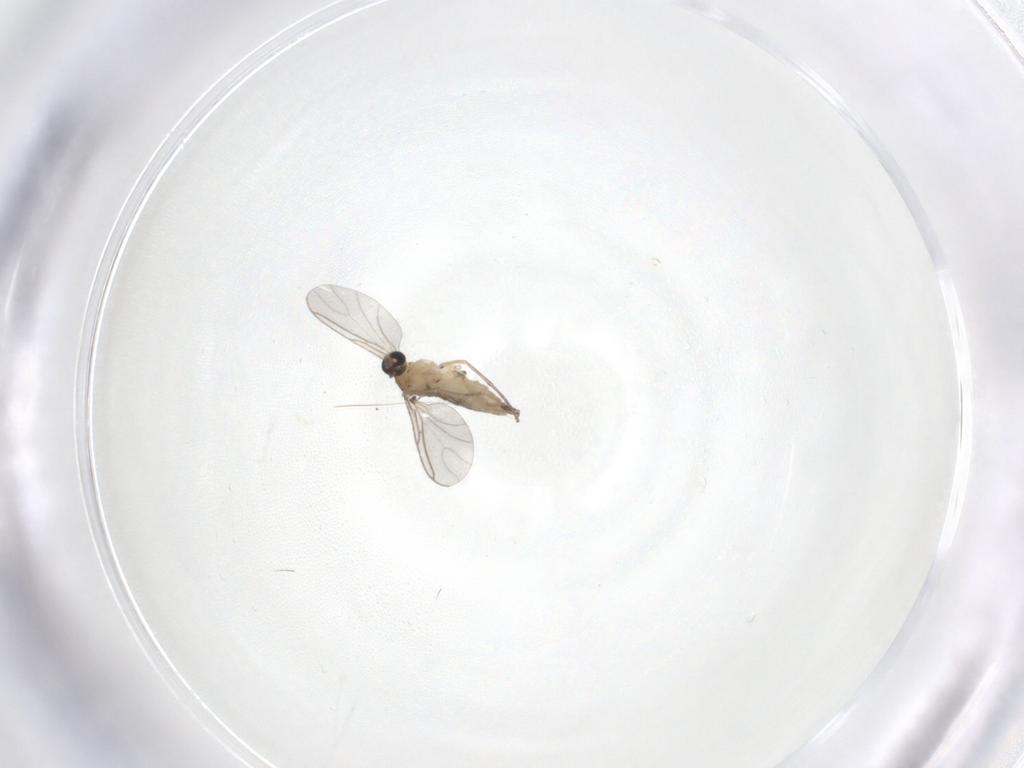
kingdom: Animalia
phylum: Arthropoda
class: Insecta
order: Diptera
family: Sciaridae
